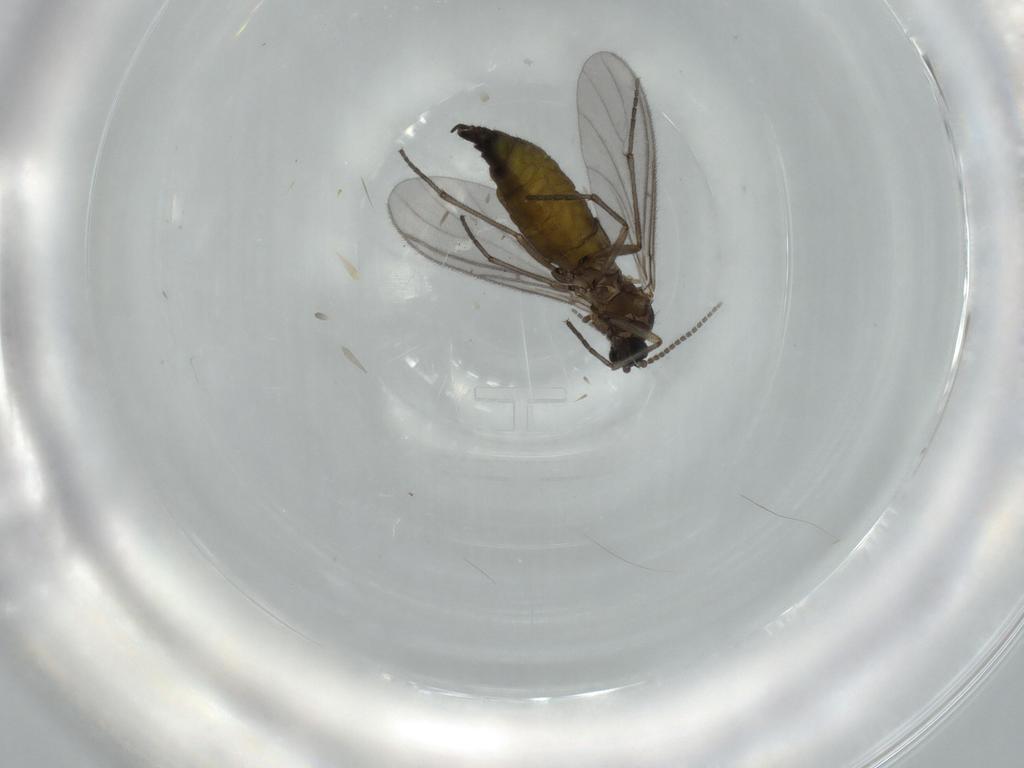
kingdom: Animalia
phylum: Arthropoda
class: Insecta
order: Diptera
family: Sciaridae
